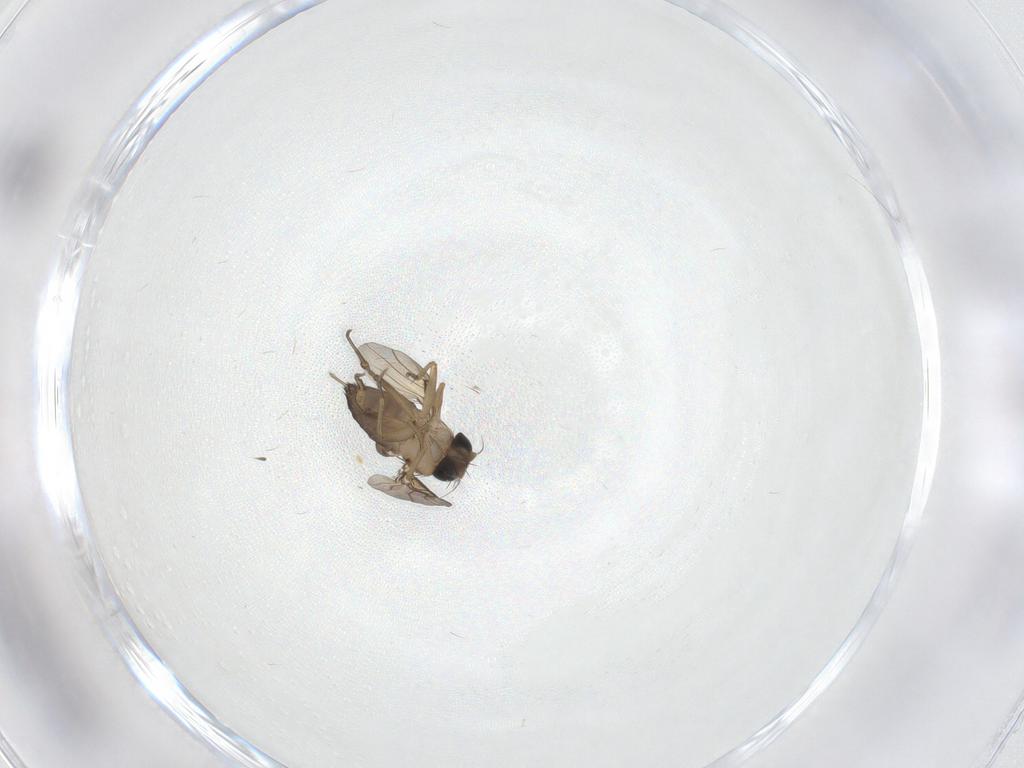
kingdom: Animalia
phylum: Arthropoda
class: Insecta
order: Diptera
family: Phoridae
